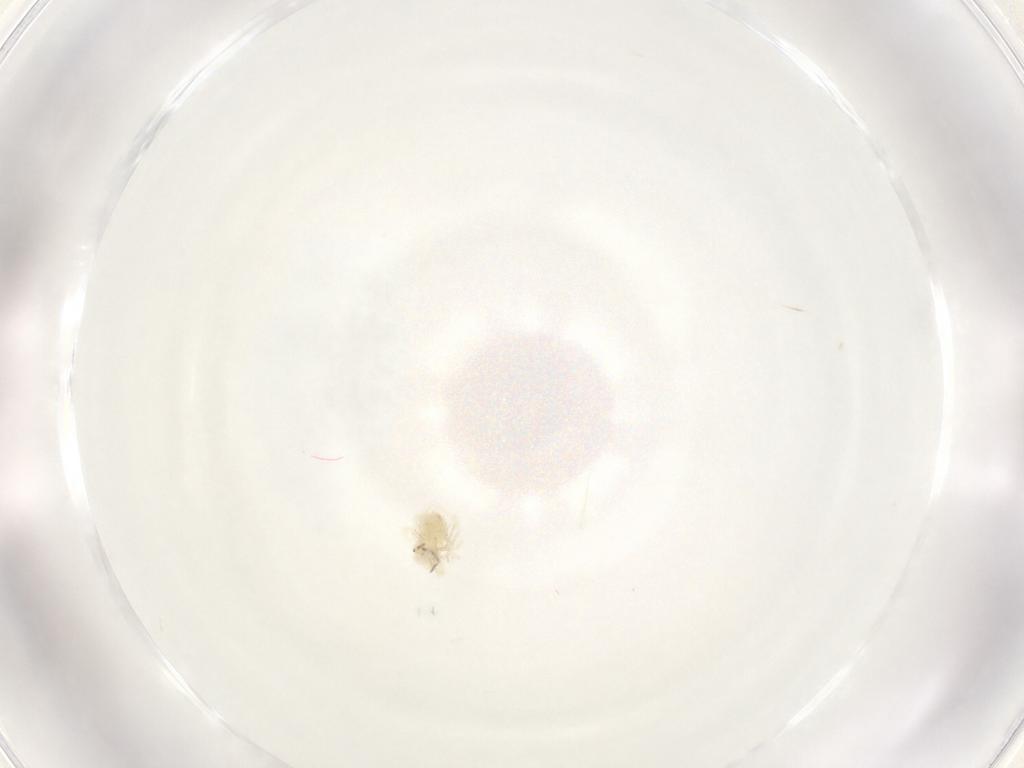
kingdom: Animalia
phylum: Arthropoda
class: Arachnida
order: Trombidiformes
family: Anystidae
